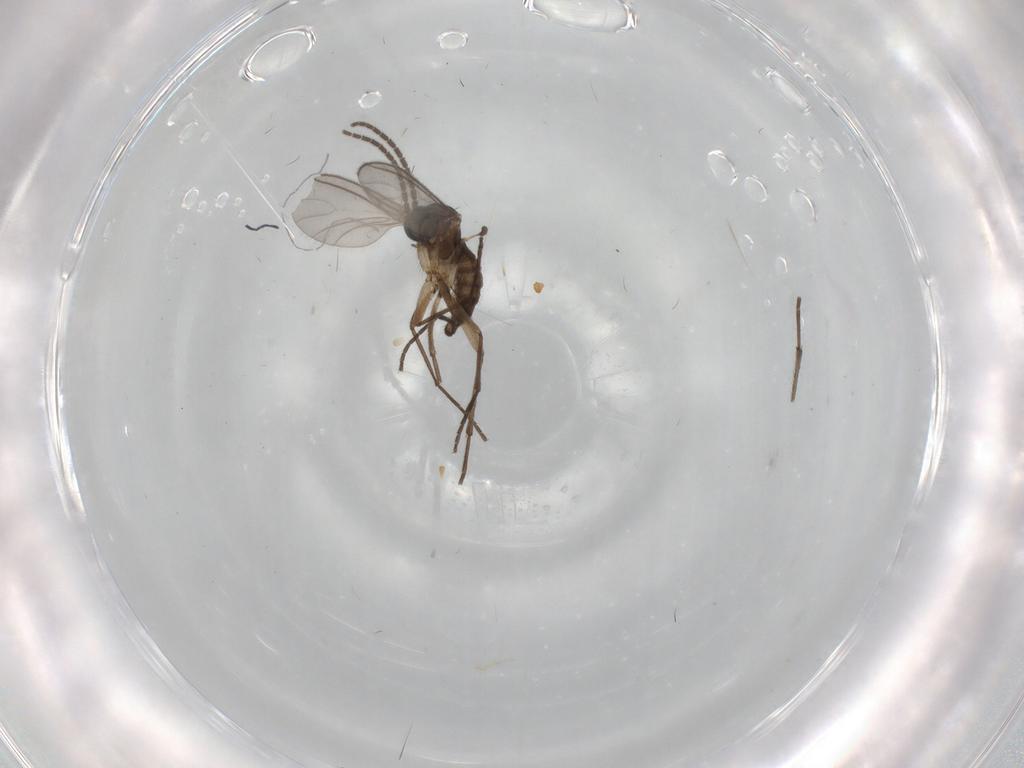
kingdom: Animalia
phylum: Arthropoda
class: Insecta
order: Diptera
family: Sciaridae
